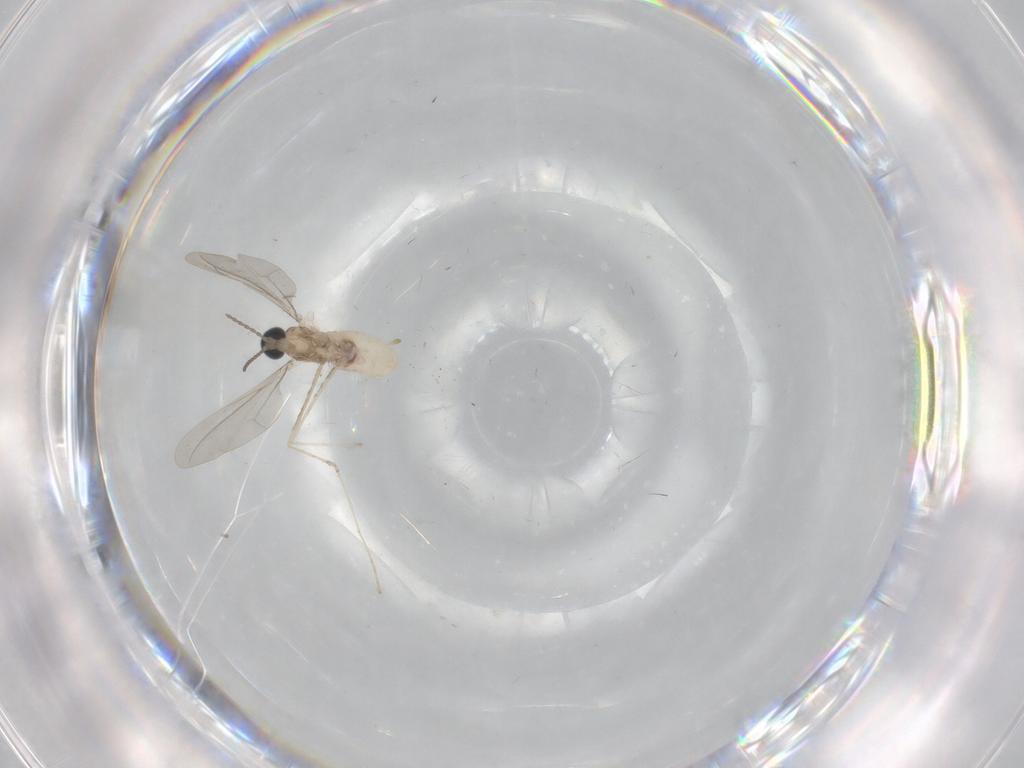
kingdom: Animalia
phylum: Arthropoda
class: Insecta
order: Diptera
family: Cecidomyiidae
